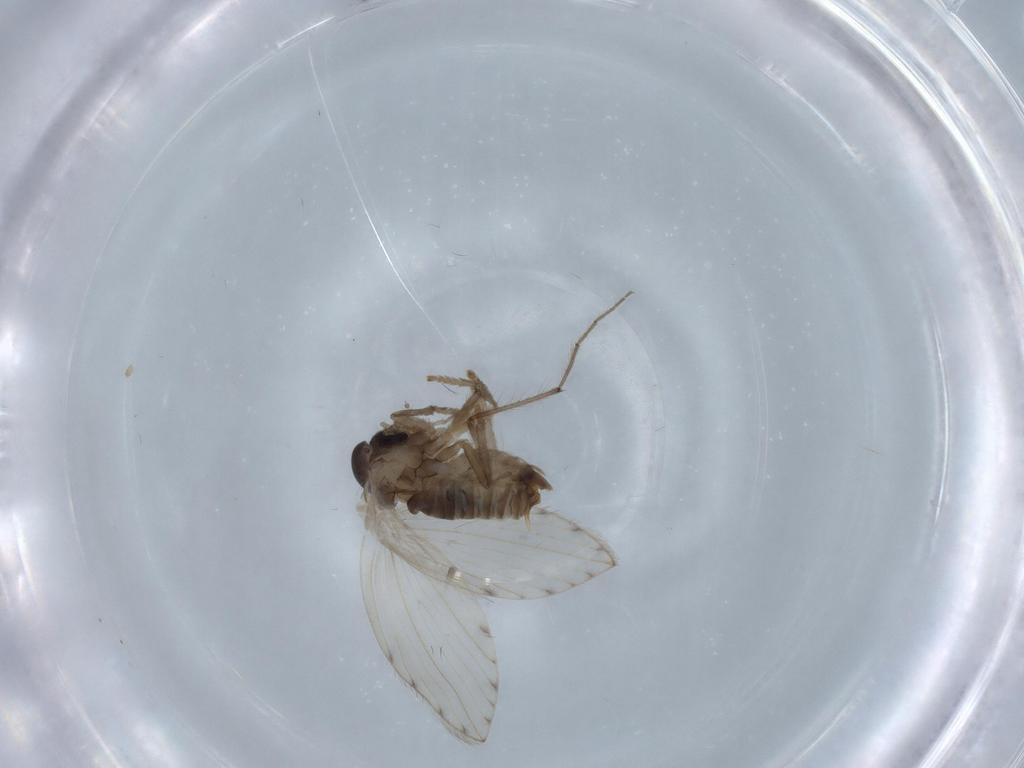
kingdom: Animalia
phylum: Arthropoda
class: Insecta
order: Diptera
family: Psychodidae
